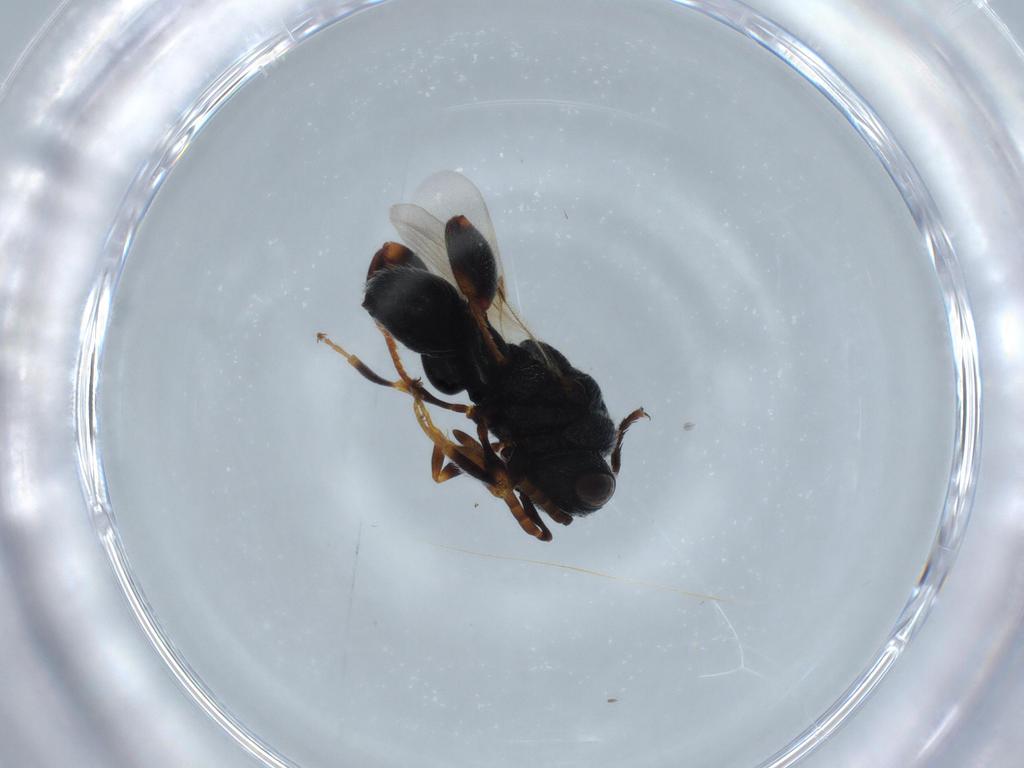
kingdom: Animalia
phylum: Arthropoda
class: Insecta
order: Hymenoptera
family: Chalcididae
